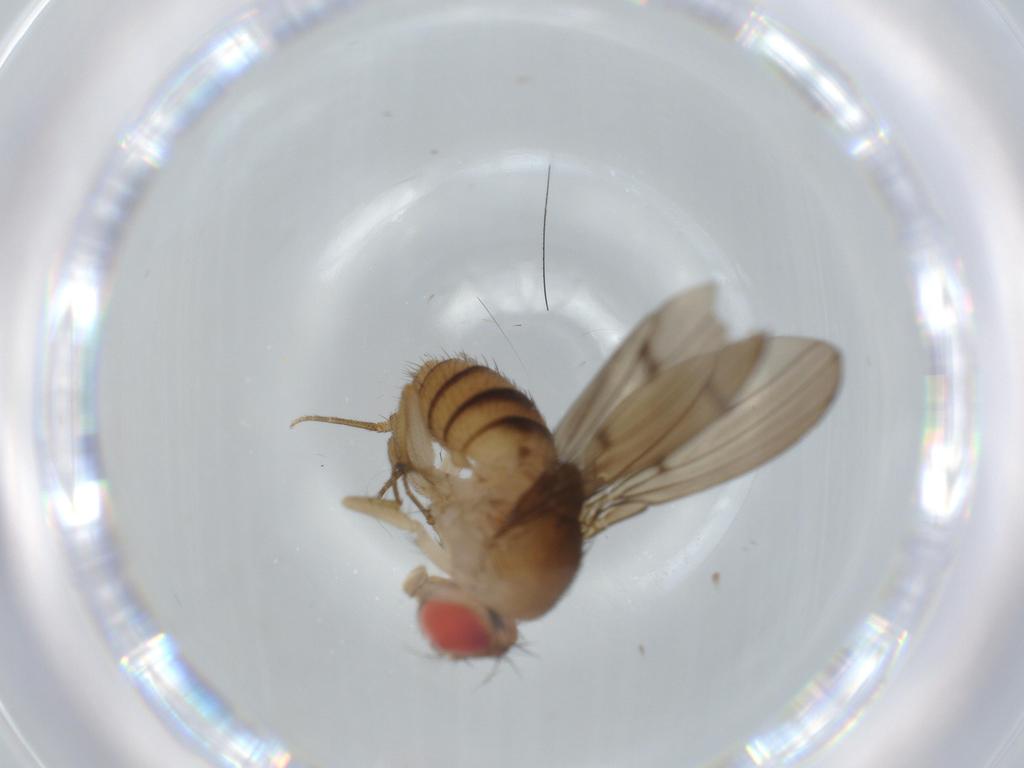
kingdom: Animalia
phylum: Arthropoda
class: Insecta
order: Diptera
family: Drosophilidae
